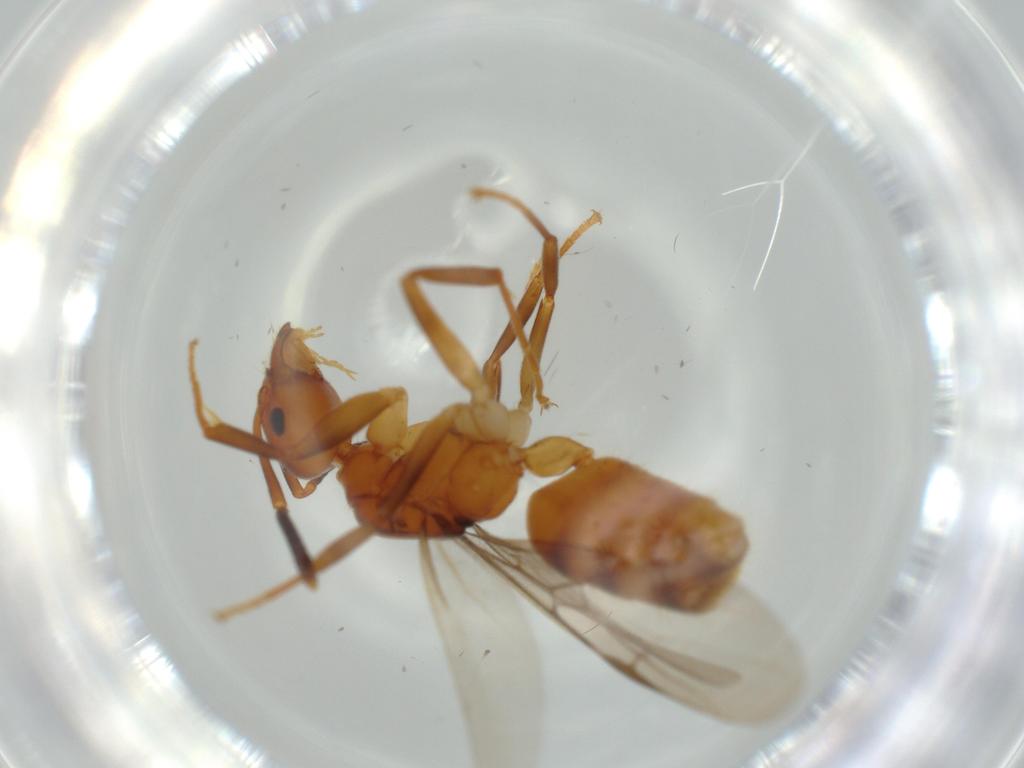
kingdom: Animalia
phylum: Arthropoda
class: Insecta
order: Hymenoptera
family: Formicidae
